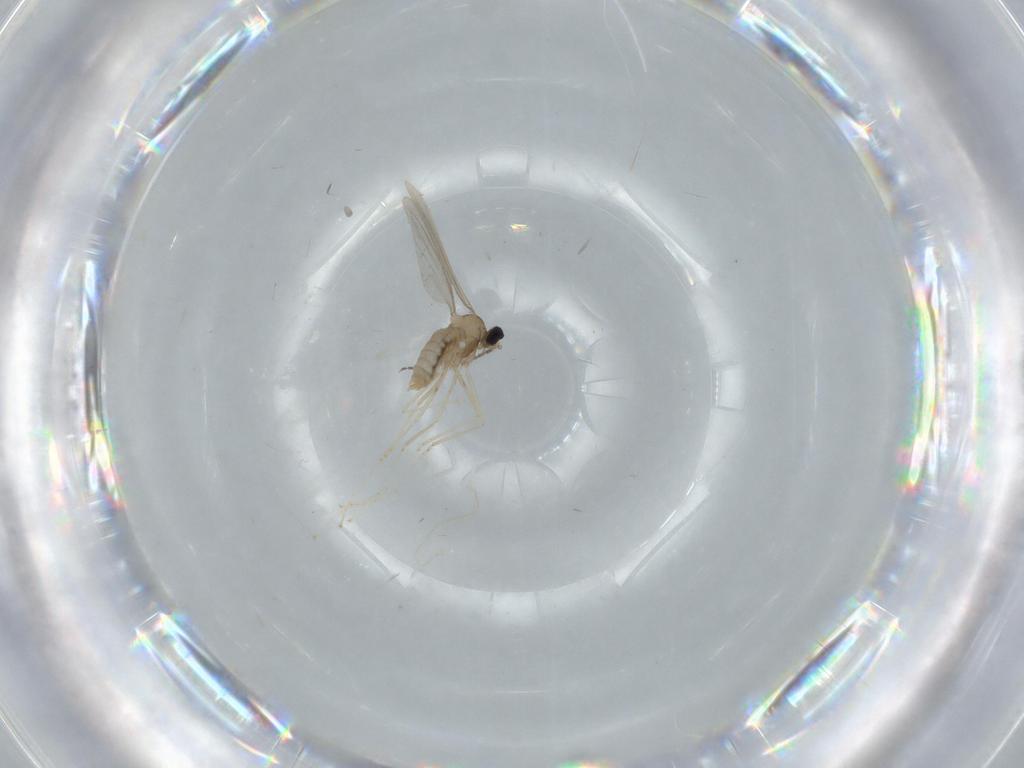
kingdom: Animalia
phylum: Arthropoda
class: Insecta
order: Diptera
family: Cecidomyiidae
